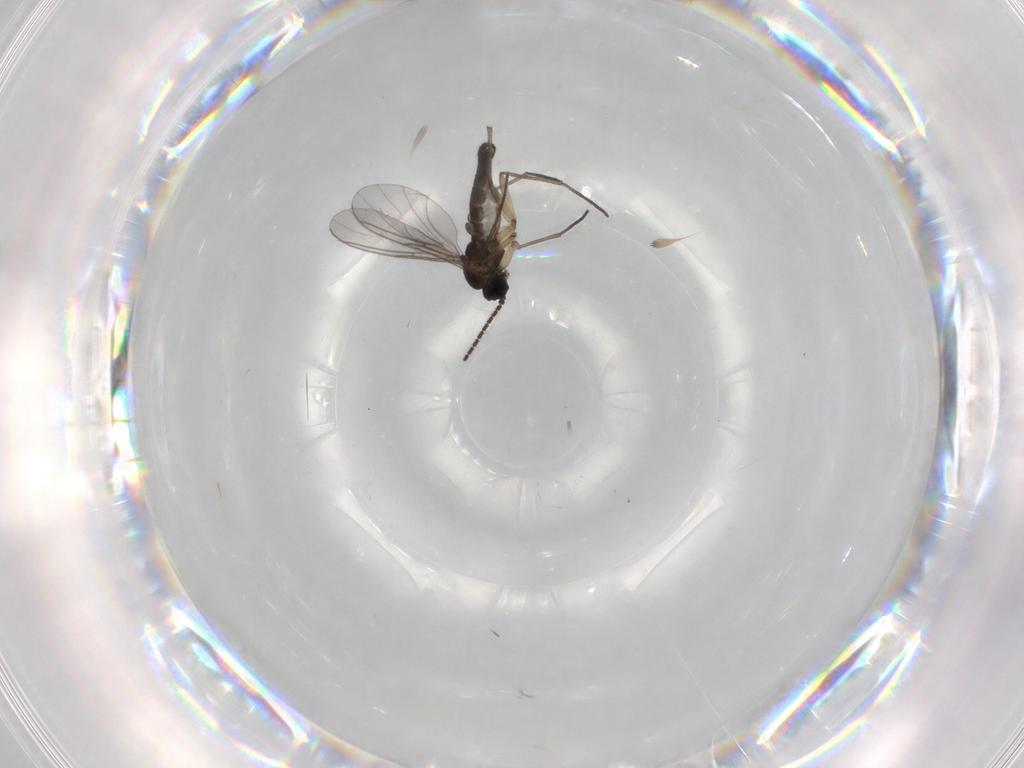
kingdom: Animalia
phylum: Arthropoda
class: Insecta
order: Diptera
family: Sciaridae
